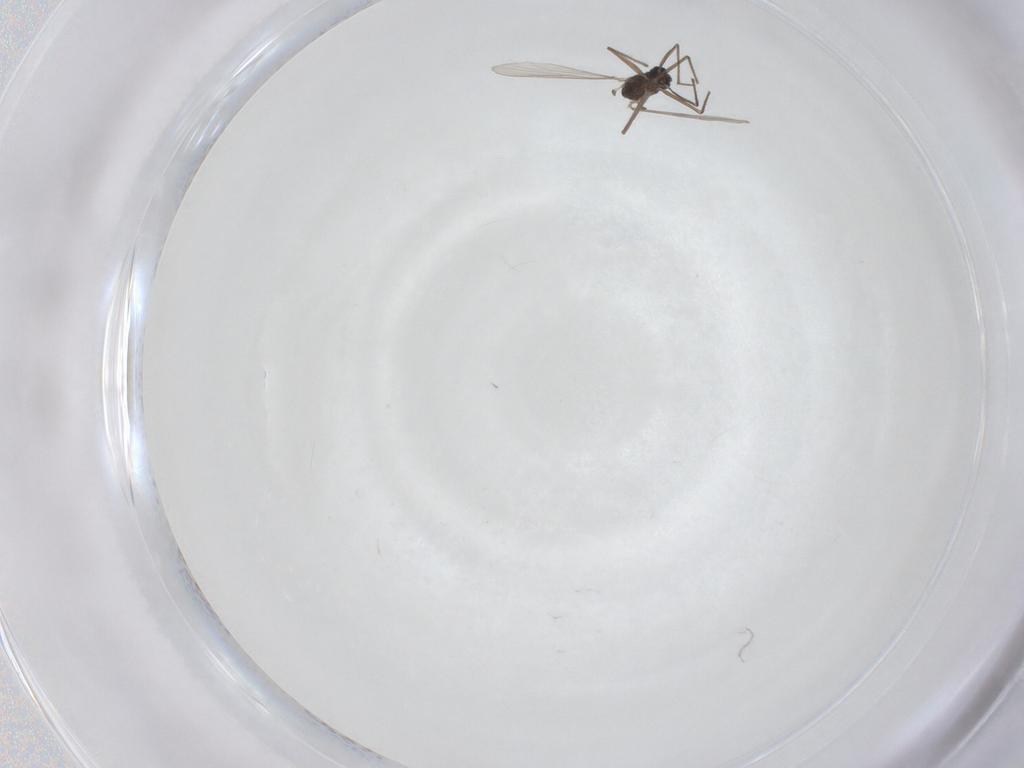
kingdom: Animalia
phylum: Arthropoda
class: Insecta
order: Diptera
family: Chironomidae
